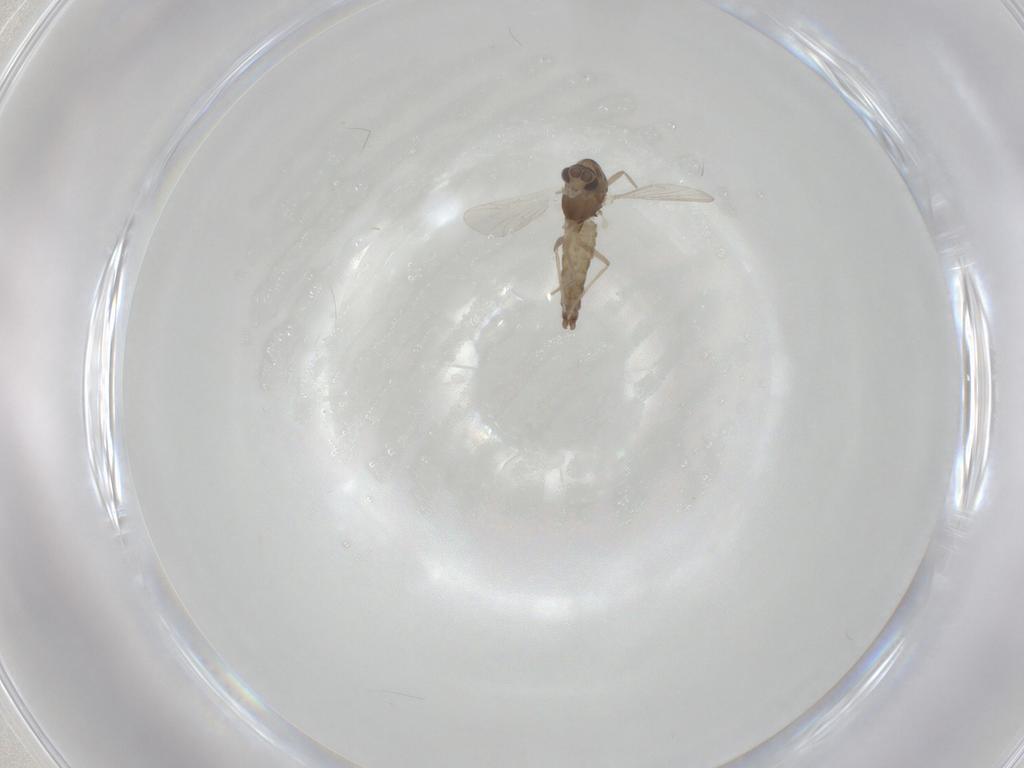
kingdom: Animalia
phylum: Arthropoda
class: Insecta
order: Diptera
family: Chironomidae
